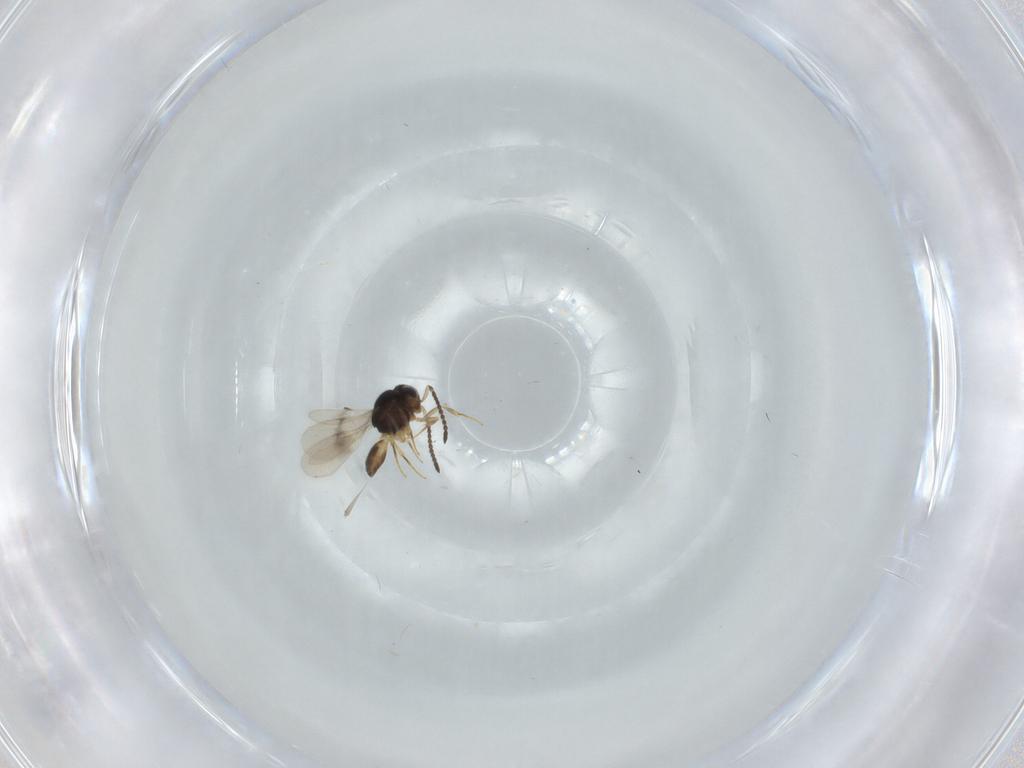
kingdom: Animalia
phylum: Arthropoda
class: Insecta
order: Hymenoptera
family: Scelionidae
